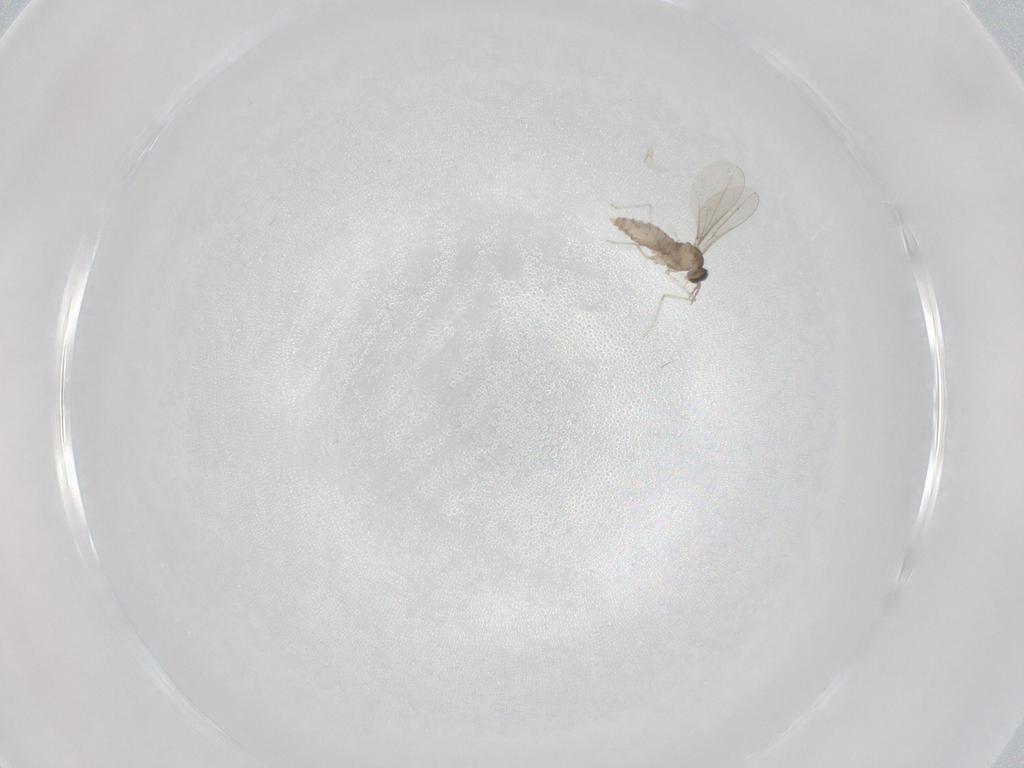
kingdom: Animalia
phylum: Arthropoda
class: Insecta
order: Diptera
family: Cecidomyiidae
